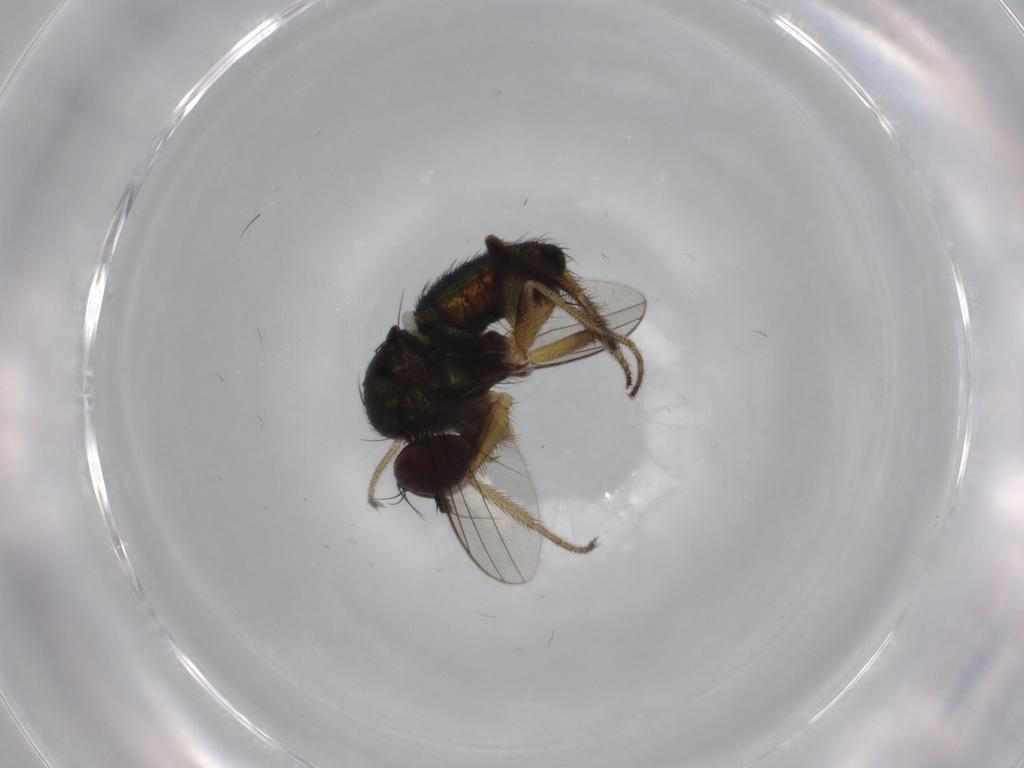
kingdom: Animalia
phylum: Arthropoda
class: Insecta
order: Diptera
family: Dolichopodidae
